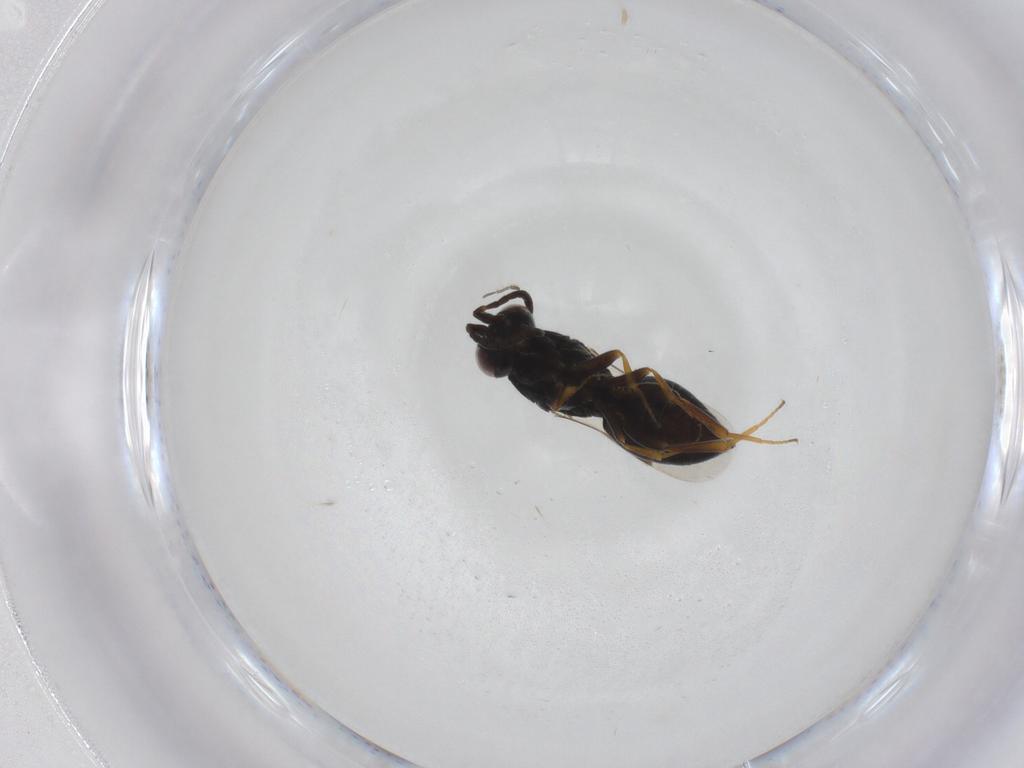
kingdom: Animalia
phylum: Arthropoda
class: Insecta
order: Hymenoptera
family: Megaspilidae
